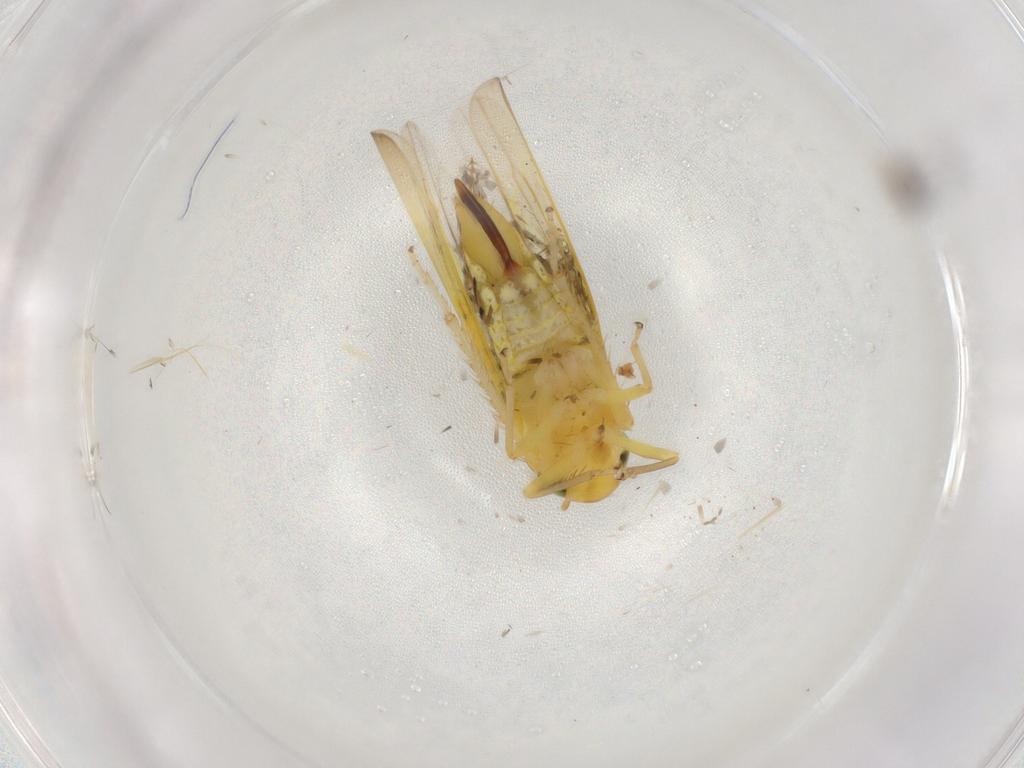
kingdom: Animalia
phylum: Arthropoda
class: Insecta
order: Hemiptera
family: Cicadellidae
